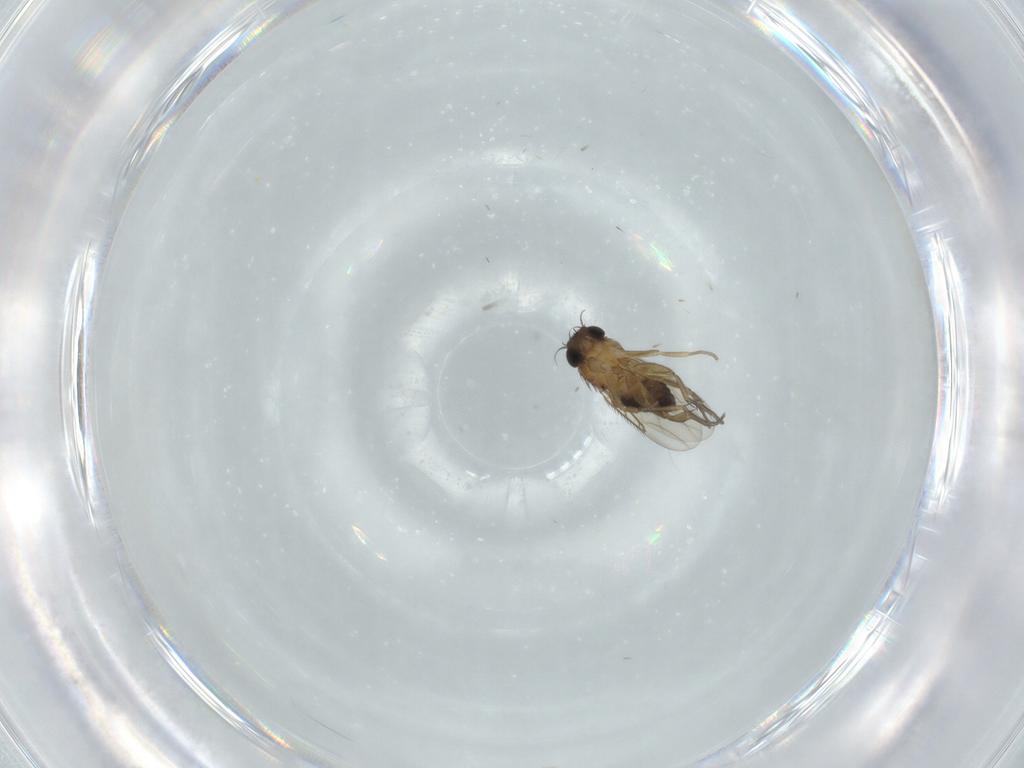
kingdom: Animalia
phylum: Arthropoda
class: Insecta
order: Diptera
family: Phoridae
